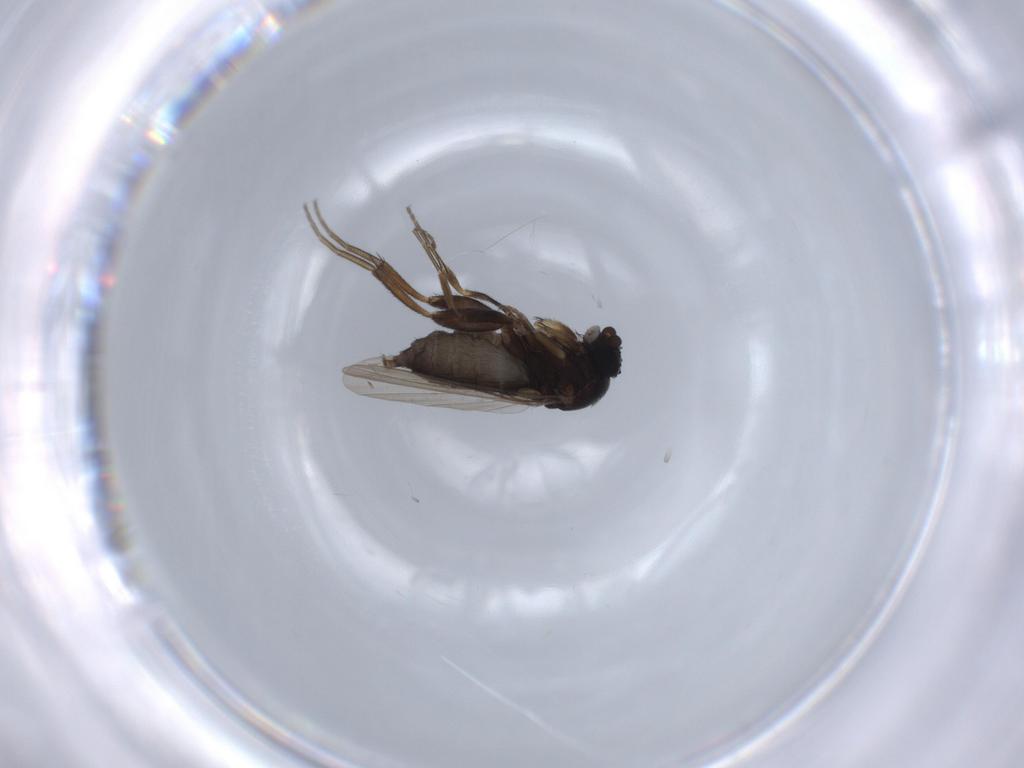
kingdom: Animalia
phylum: Arthropoda
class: Insecta
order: Diptera
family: Phoridae
